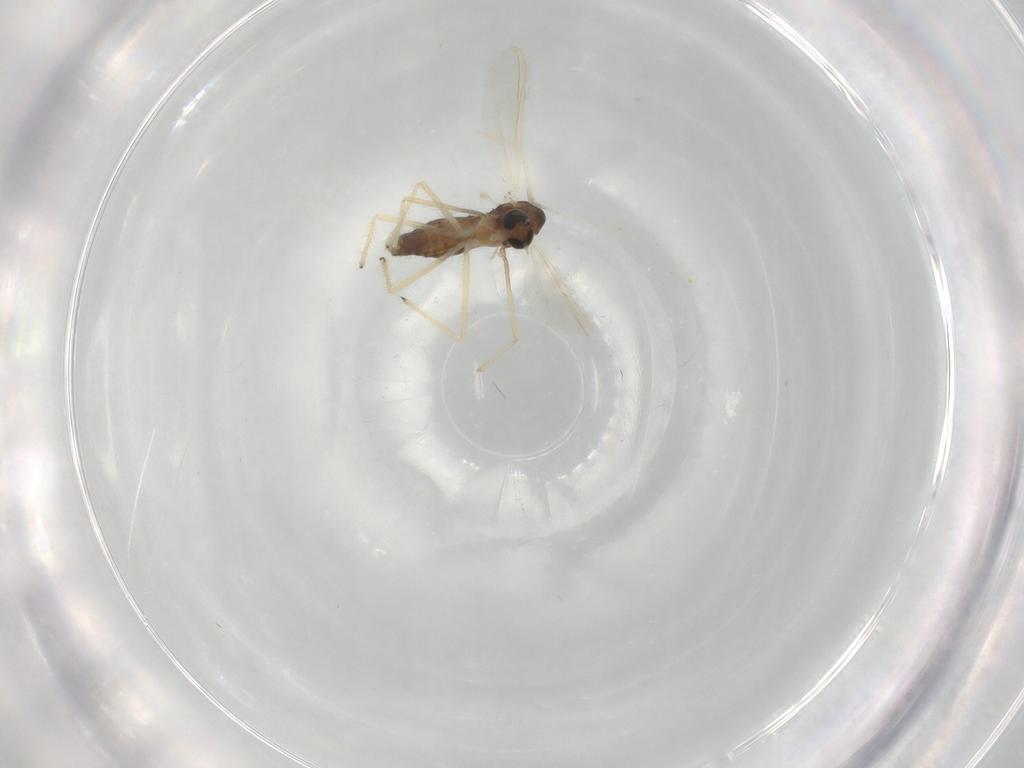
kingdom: Animalia
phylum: Arthropoda
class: Insecta
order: Diptera
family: Chironomidae
